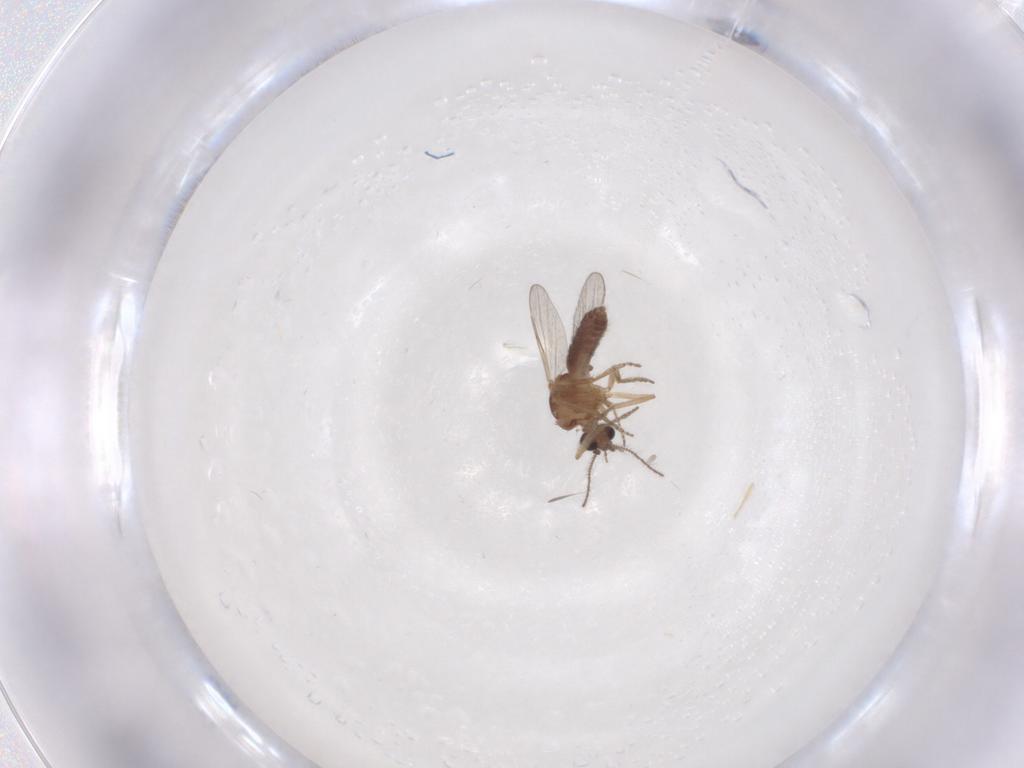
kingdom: Animalia
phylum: Arthropoda
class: Insecta
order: Diptera
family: Ceratopogonidae
